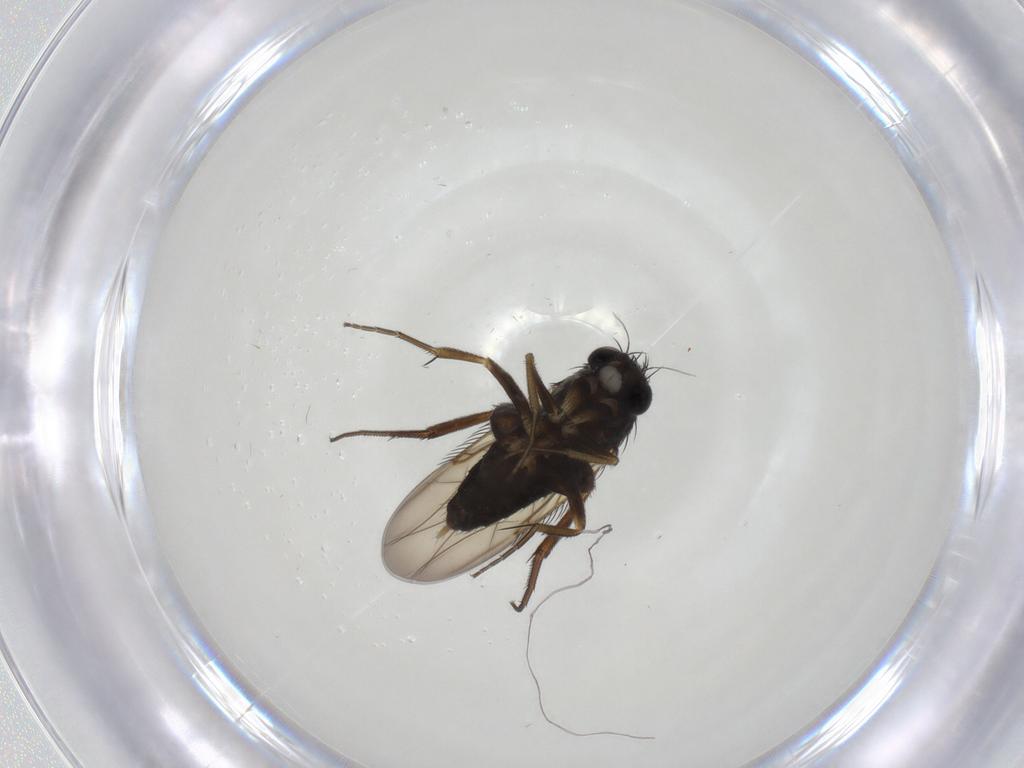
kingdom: Animalia
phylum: Arthropoda
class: Insecta
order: Diptera
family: Phoridae
